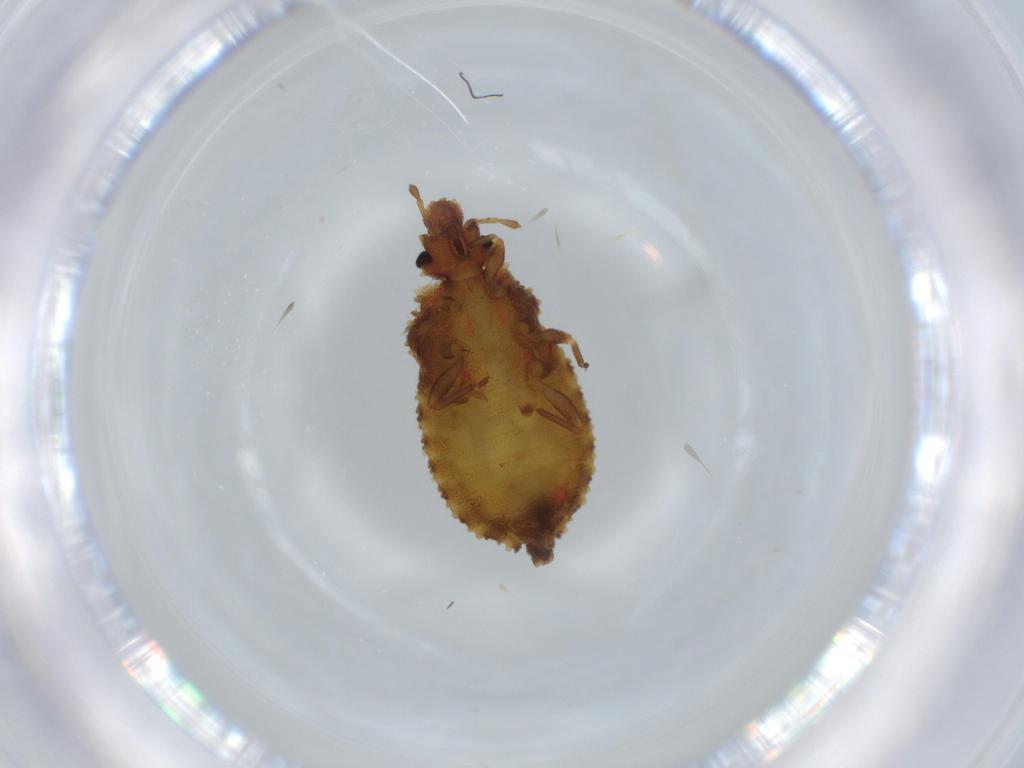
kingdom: Animalia
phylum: Arthropoda
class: Insecta
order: Hemiptera
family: Aradidae
